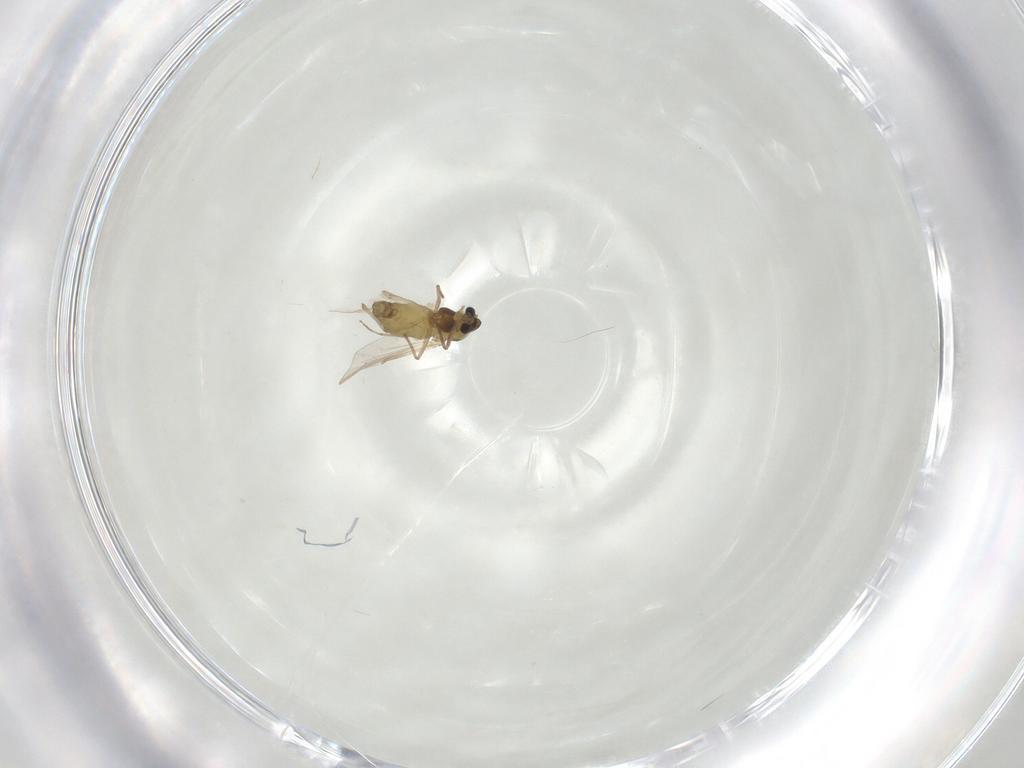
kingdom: Animalia
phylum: Arthropoda
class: Insecta
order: Diptera
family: Chironomidae
